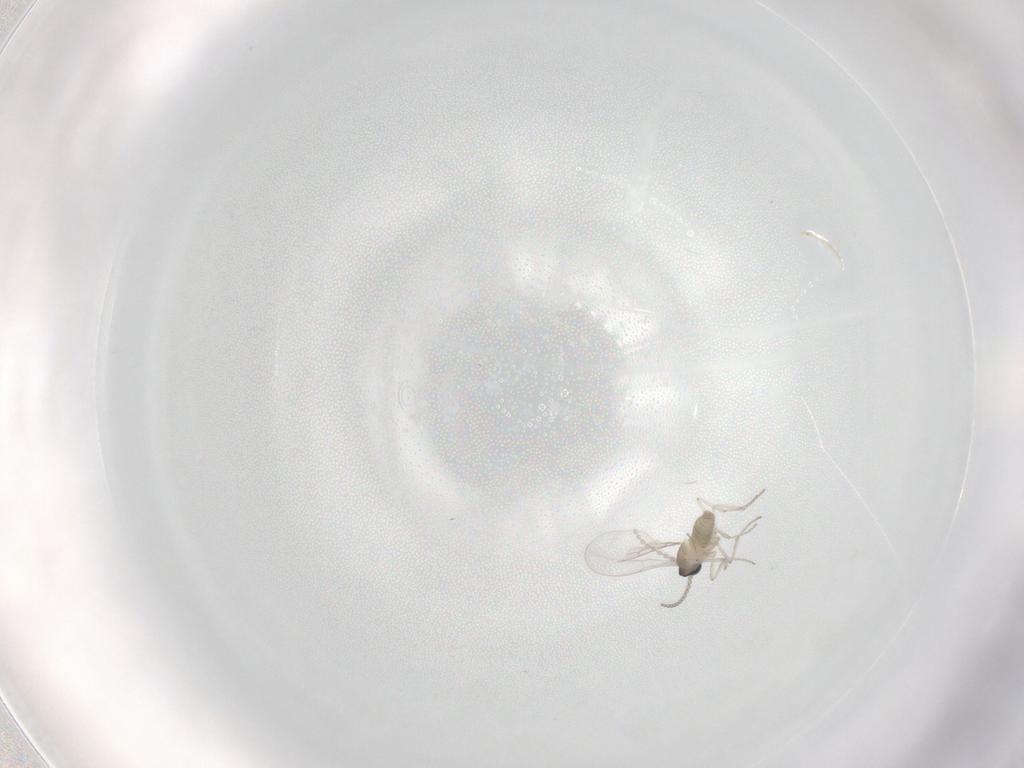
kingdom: Animalia
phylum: Arthropoda
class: Insecta
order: Diptera
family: Cecidomyiidae
